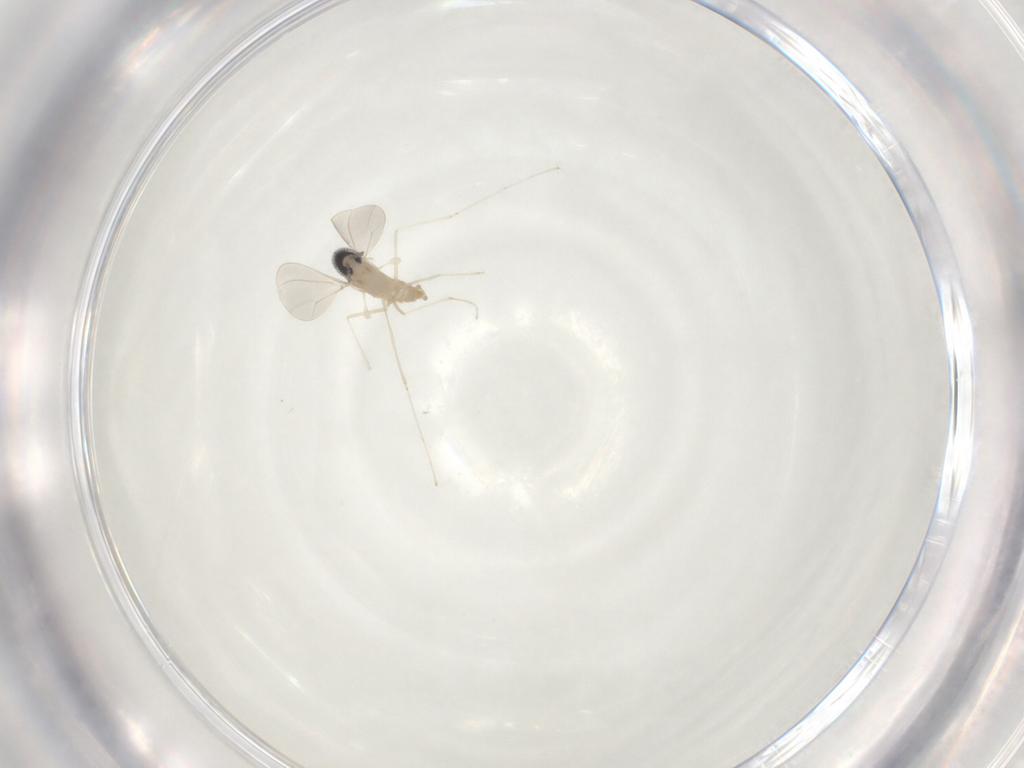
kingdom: Animalia
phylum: Arthropoda
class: Insecta
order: Diptera
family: Cecidomyiidae
